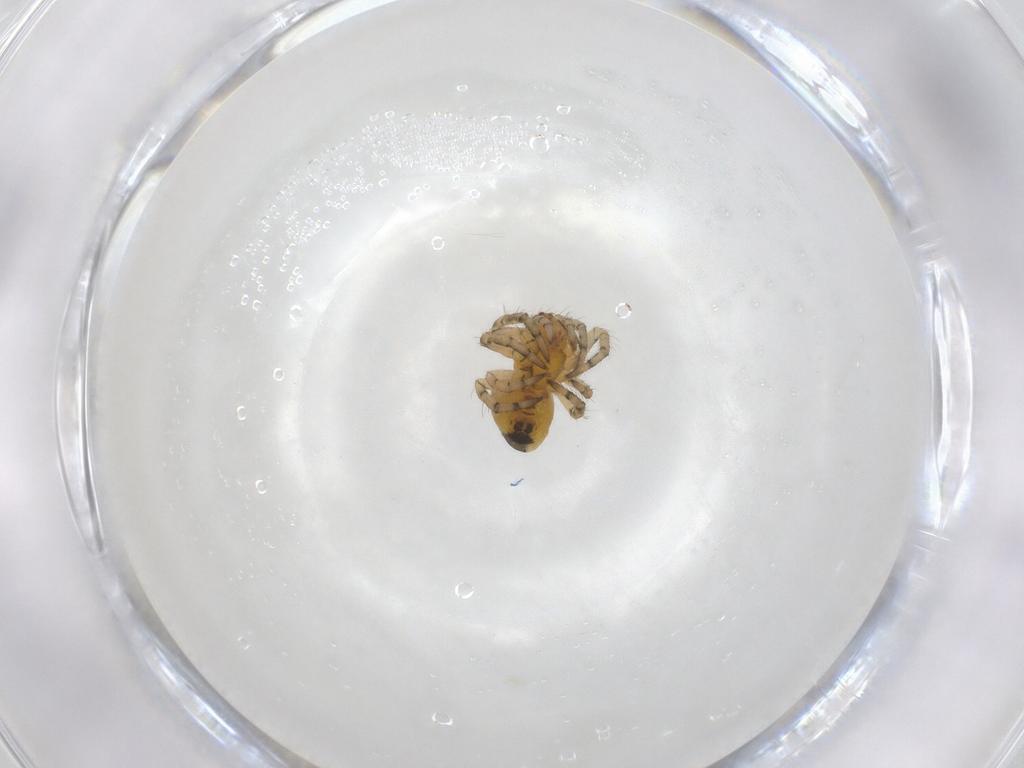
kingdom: Animalia
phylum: Arthropoda
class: Arachnida
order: Araneae
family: Araneidae
